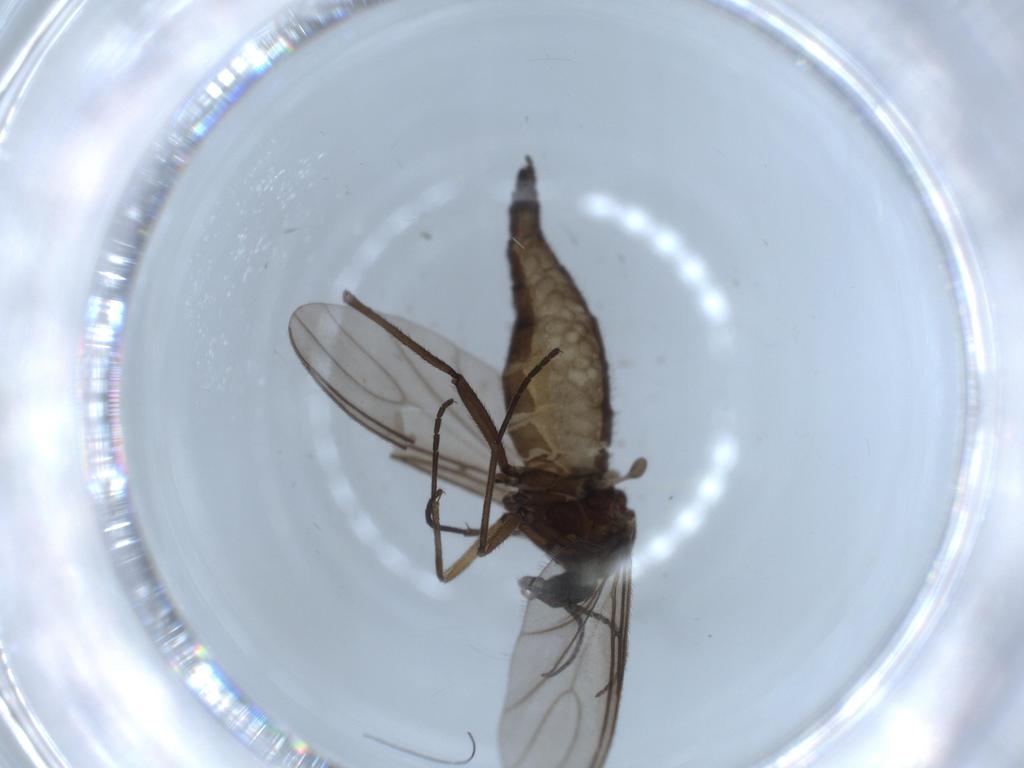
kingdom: Animalia
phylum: Arthropoda
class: Insecta
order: Diptera
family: Sciaridae
